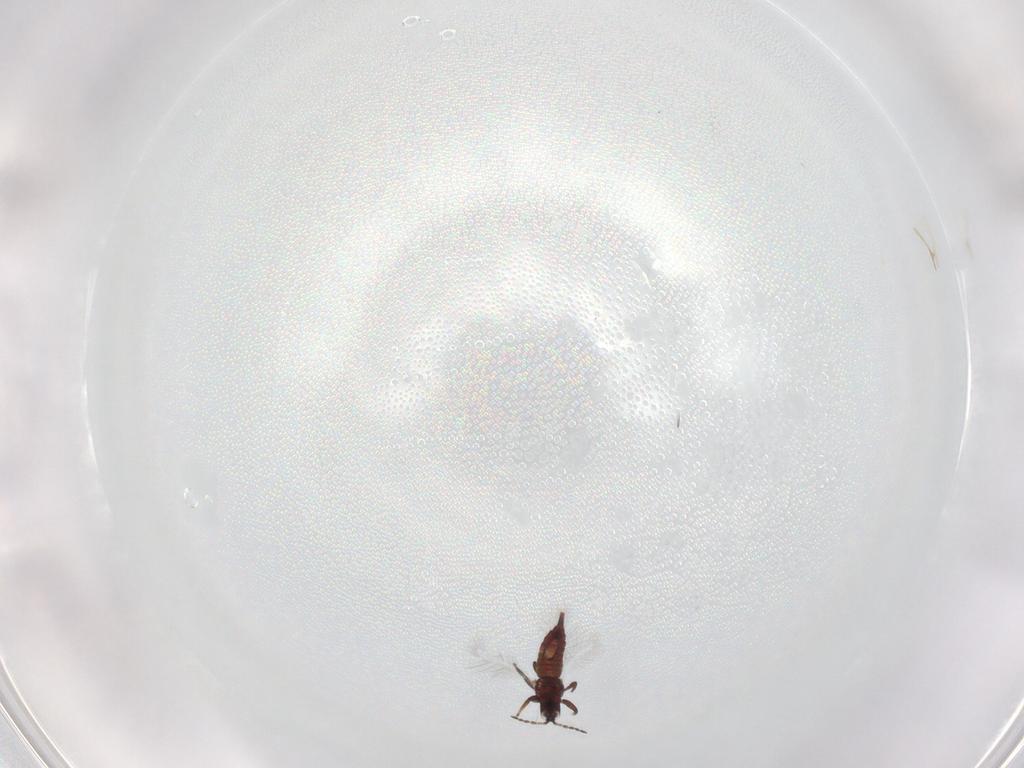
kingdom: Animalia
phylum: Arthropoda
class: Insecta
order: Thysanoptera
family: Phlaeothripidae
